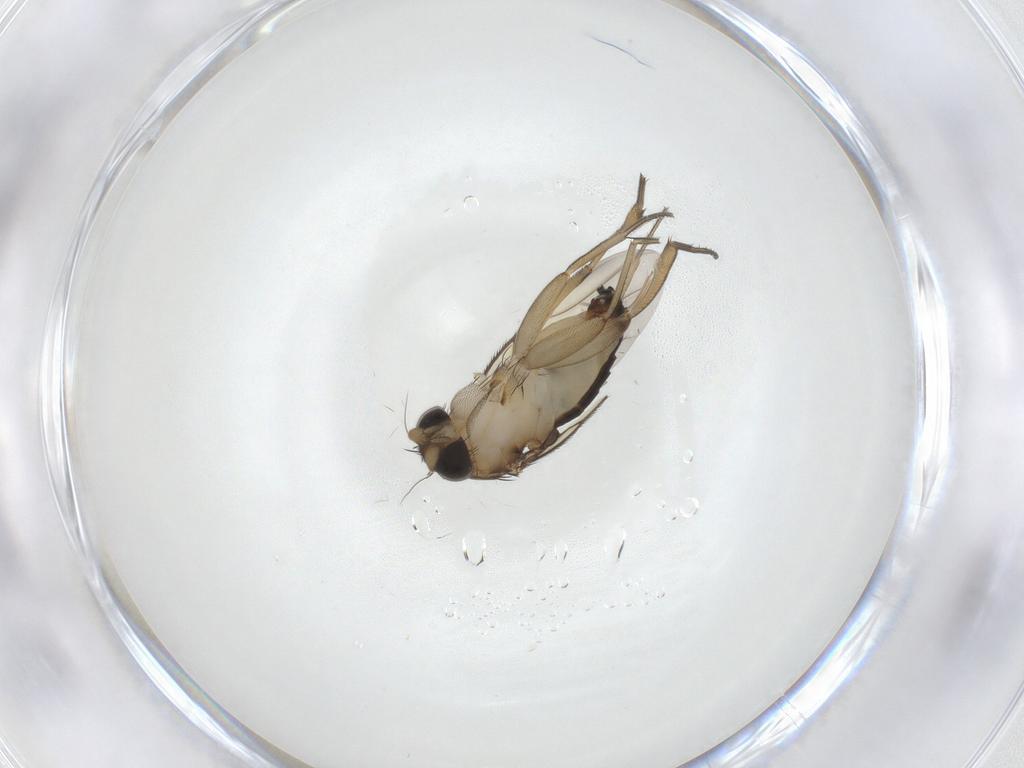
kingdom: Animalia
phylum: Arthropoda
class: Insecta
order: Diptera
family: Phoridae
